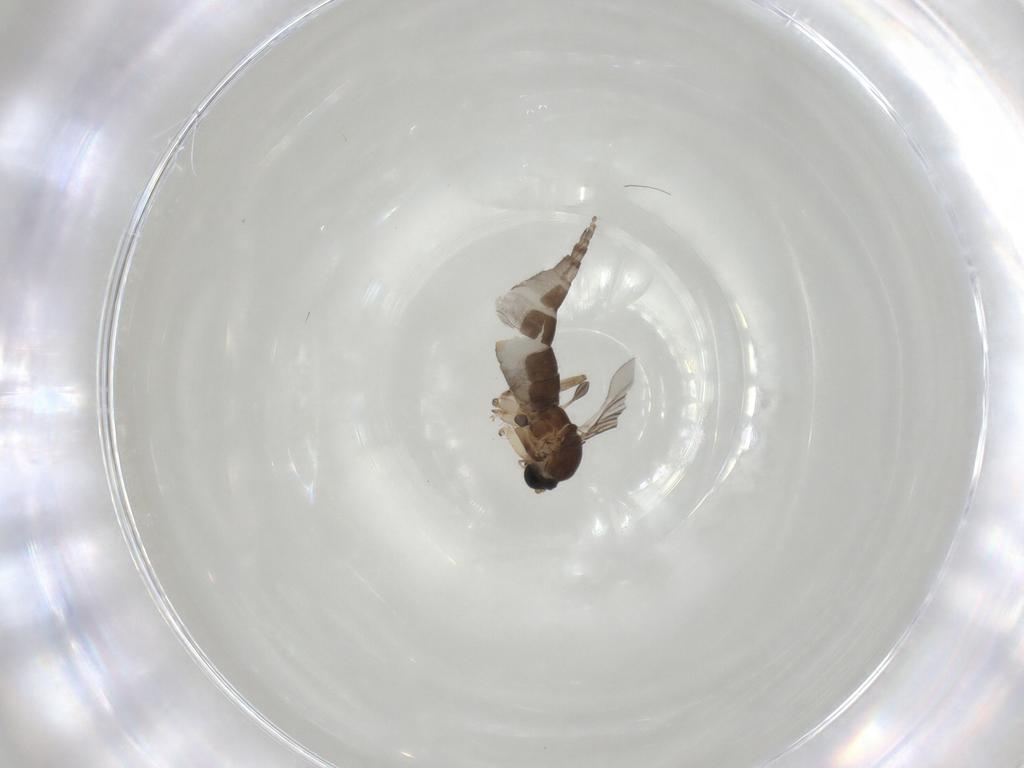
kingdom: Animalia
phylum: Arthropoda
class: Insecta
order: Diptera
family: Sciaridae
